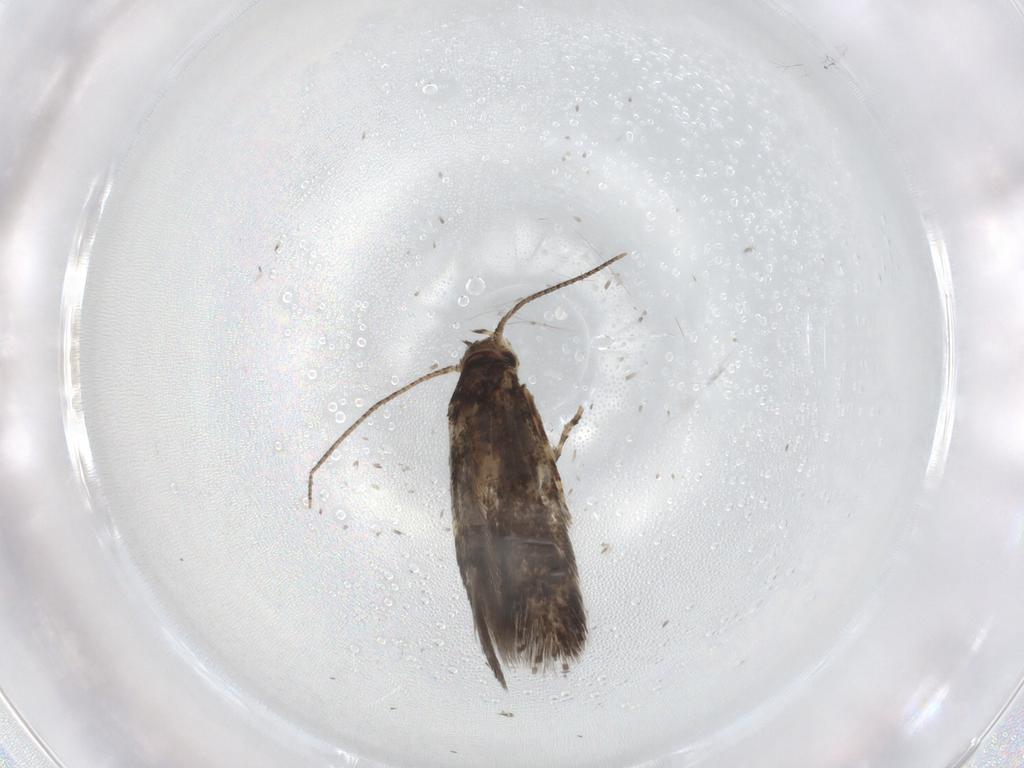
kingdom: Animalia
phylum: Arthropoda
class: Insecta
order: Lepidoptera
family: Elachistidae
